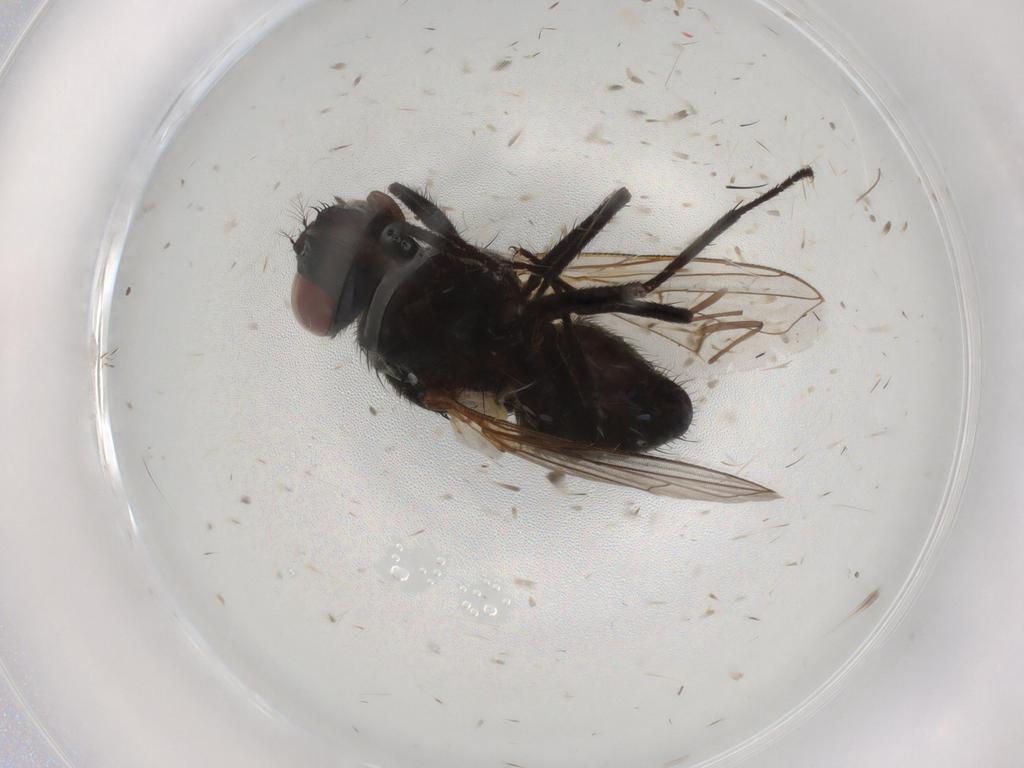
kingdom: Animalia
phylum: Arthropoda
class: Insecta
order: Diptera
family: Muscidae
